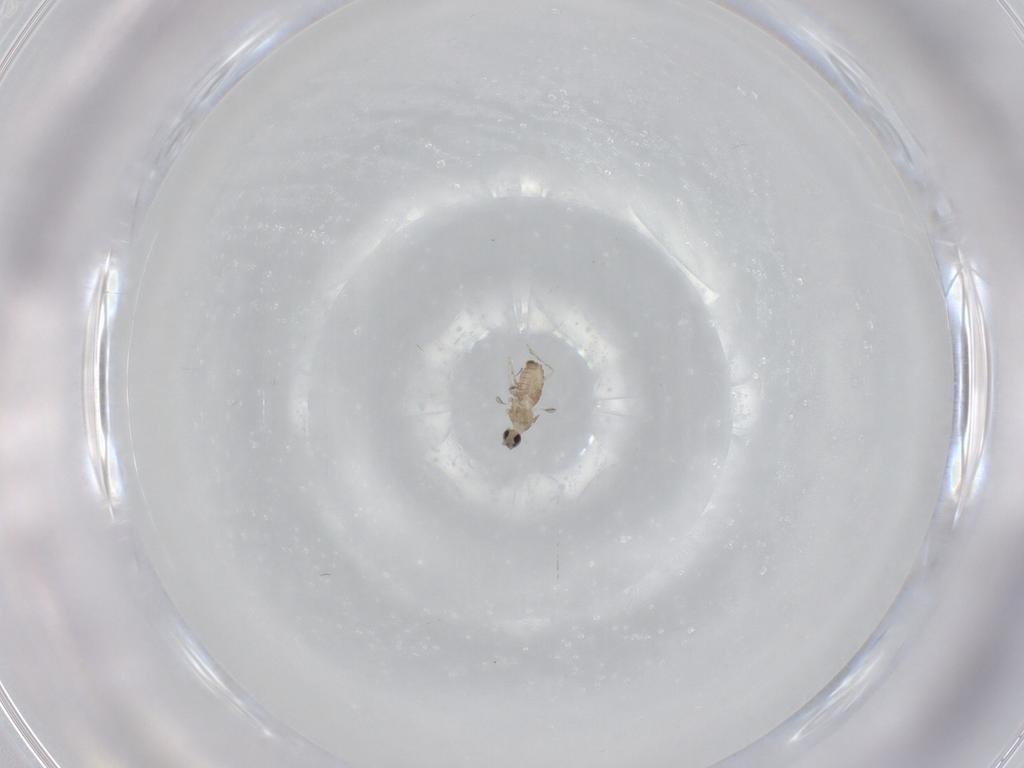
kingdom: Animalia
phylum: Arthropoda
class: Insecta
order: Diptera
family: Cecidomyiidae
